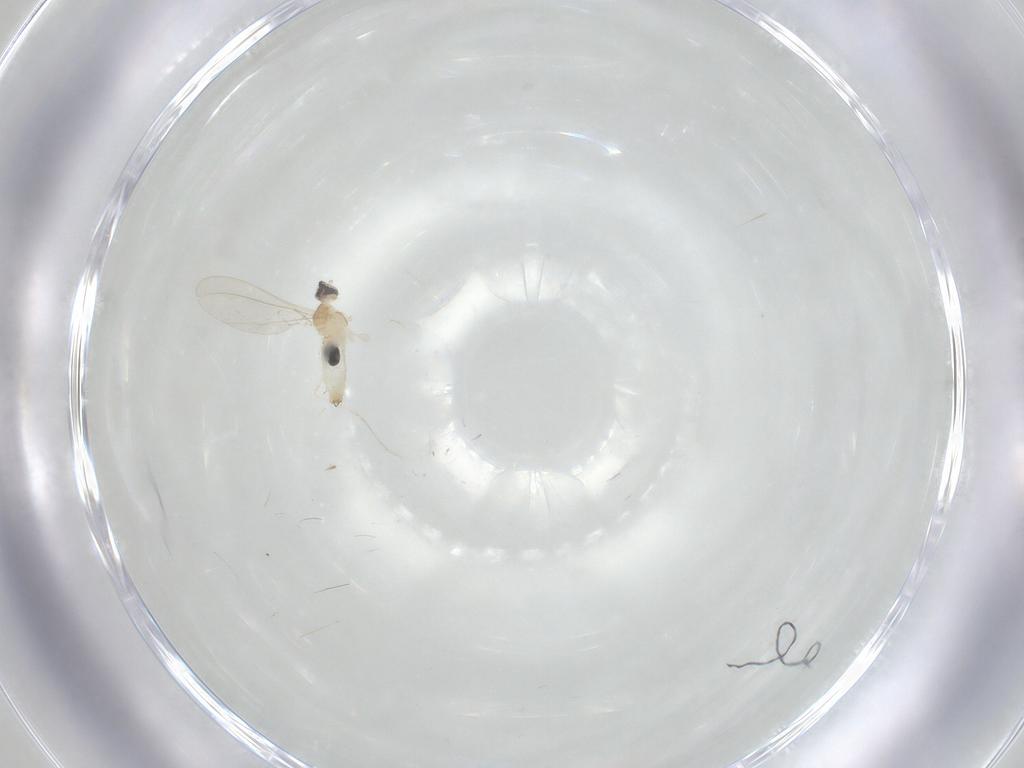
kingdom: Animalia
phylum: Arthropoda
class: Insecta
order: Diptera
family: Cecidomyiidae
